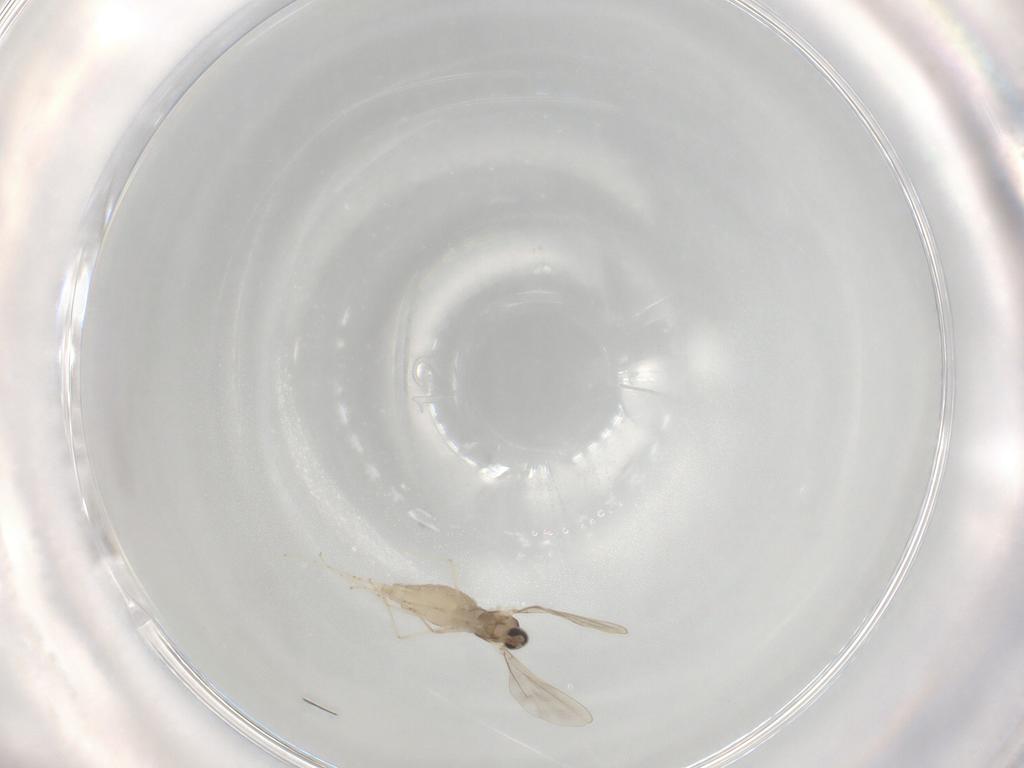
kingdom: Animalia
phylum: Arthropoda
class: Insecta
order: Diptera
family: Cecidomyiidae
